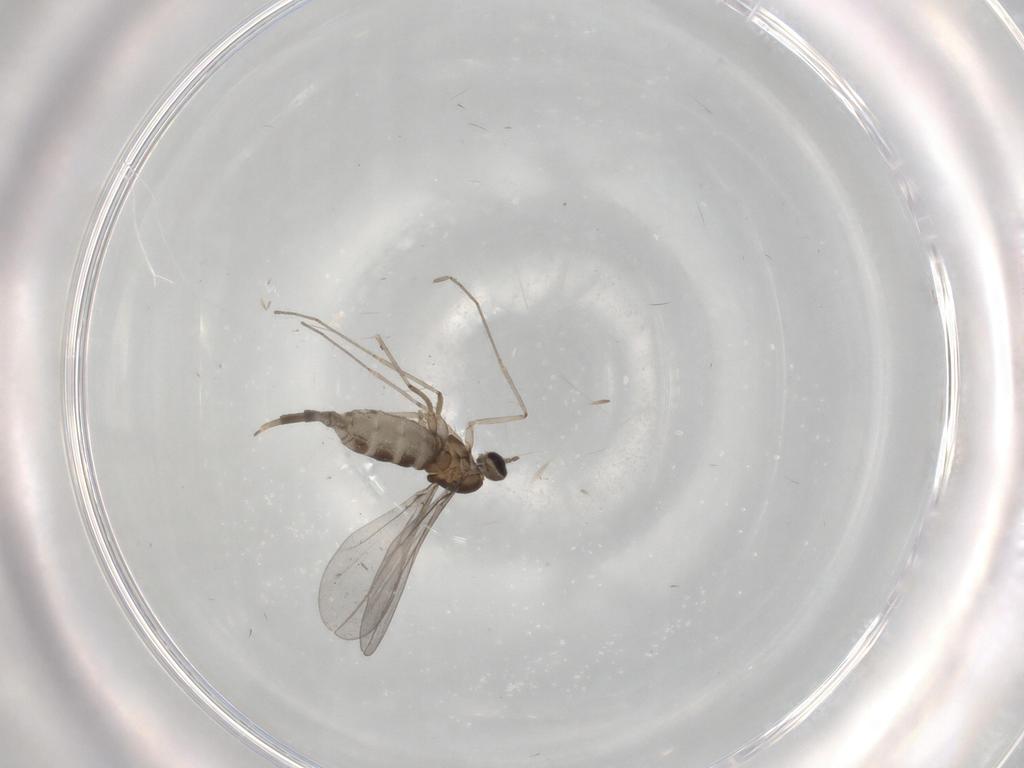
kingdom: Animalia
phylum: Arthropoda
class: Insecta
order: Diptera
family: Cecidomyiidae
